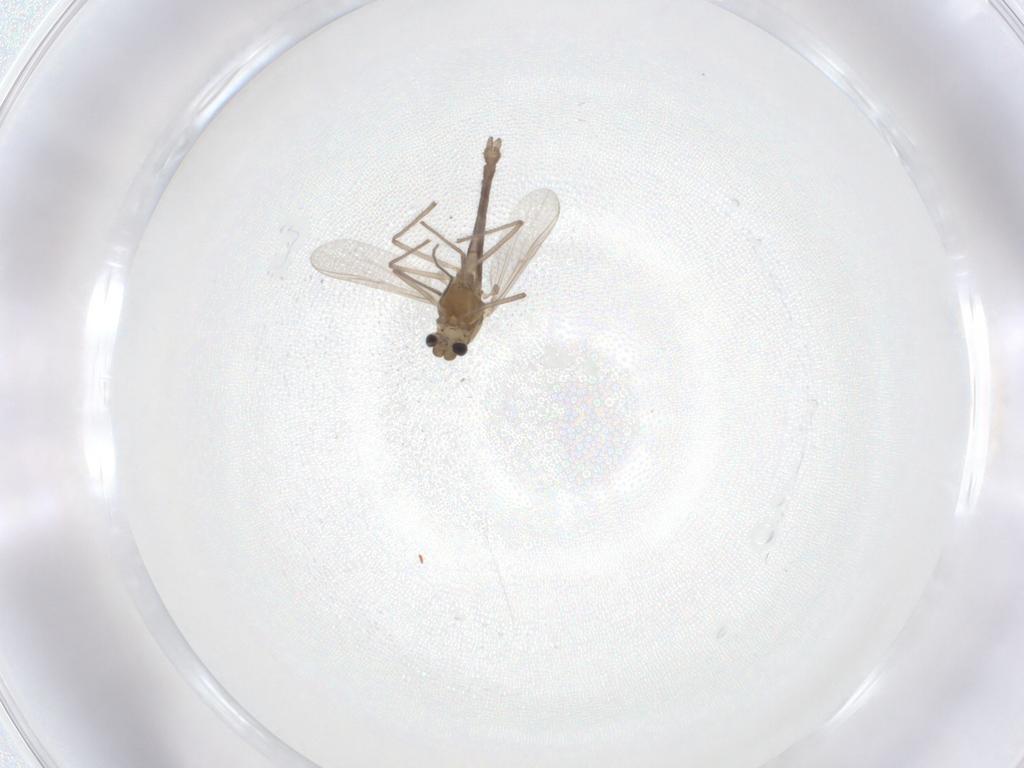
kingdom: Animalia
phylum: Arthropoda
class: Insecta
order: Diptera
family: Chironomidae
